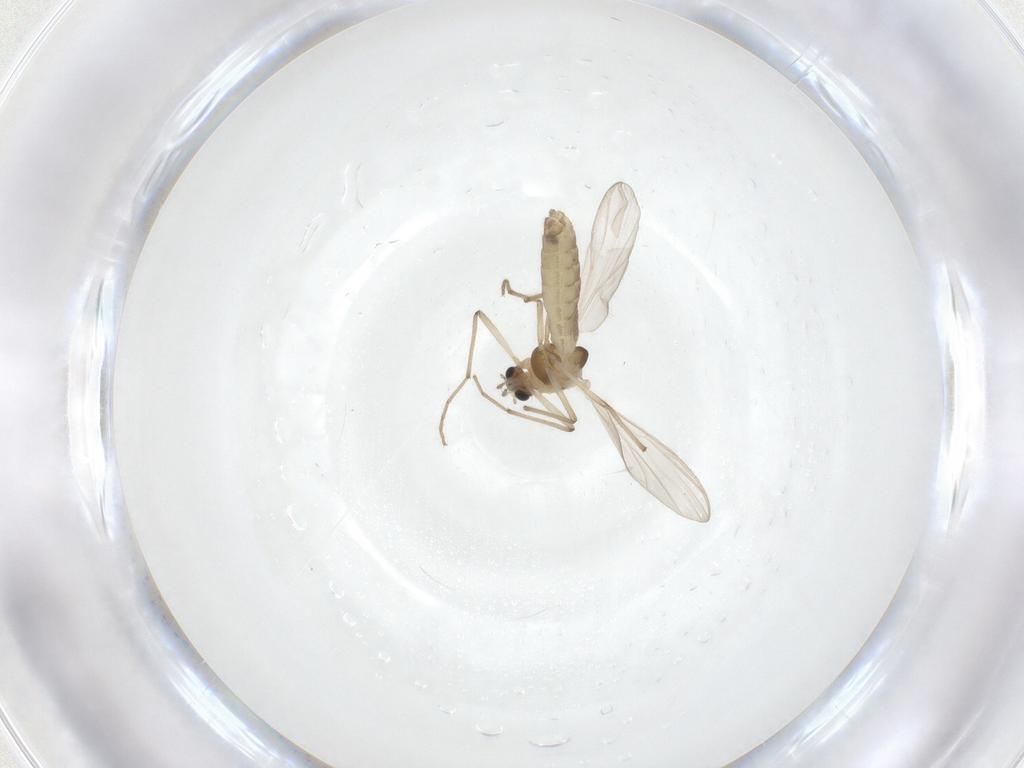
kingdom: Animalia
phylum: Arthropoda
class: Insecta
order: Diptera
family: Chironomidae
